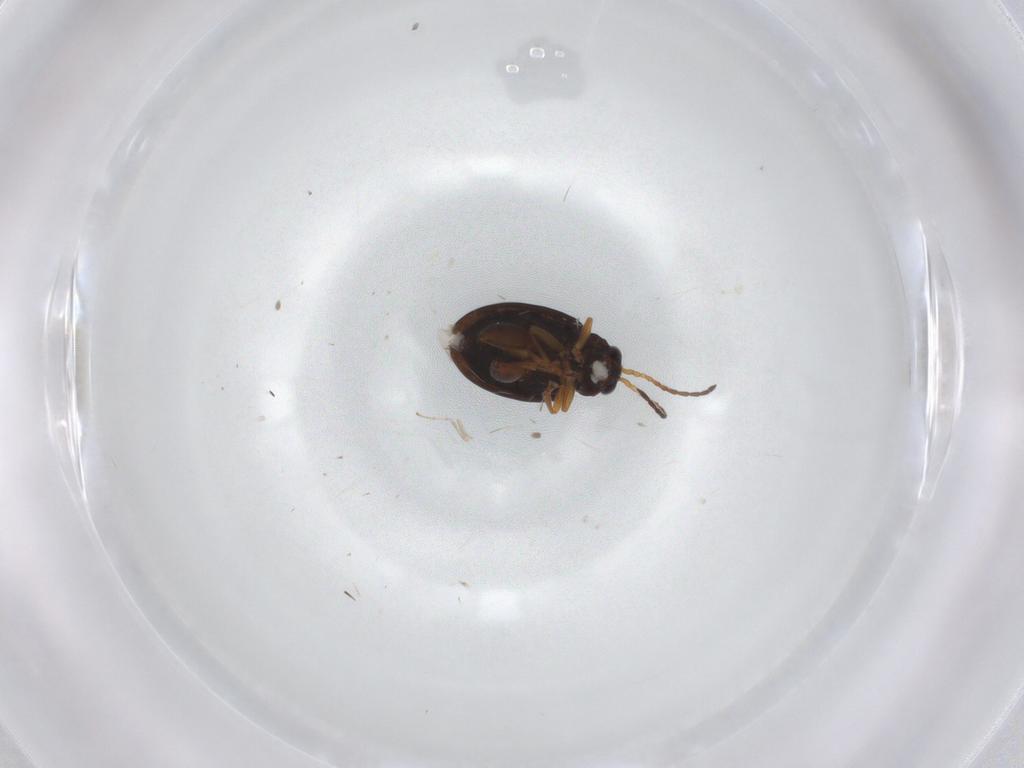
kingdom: Animalia
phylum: Arthropoda
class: Insecta
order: Coleoptera
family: Chrysomelidae
